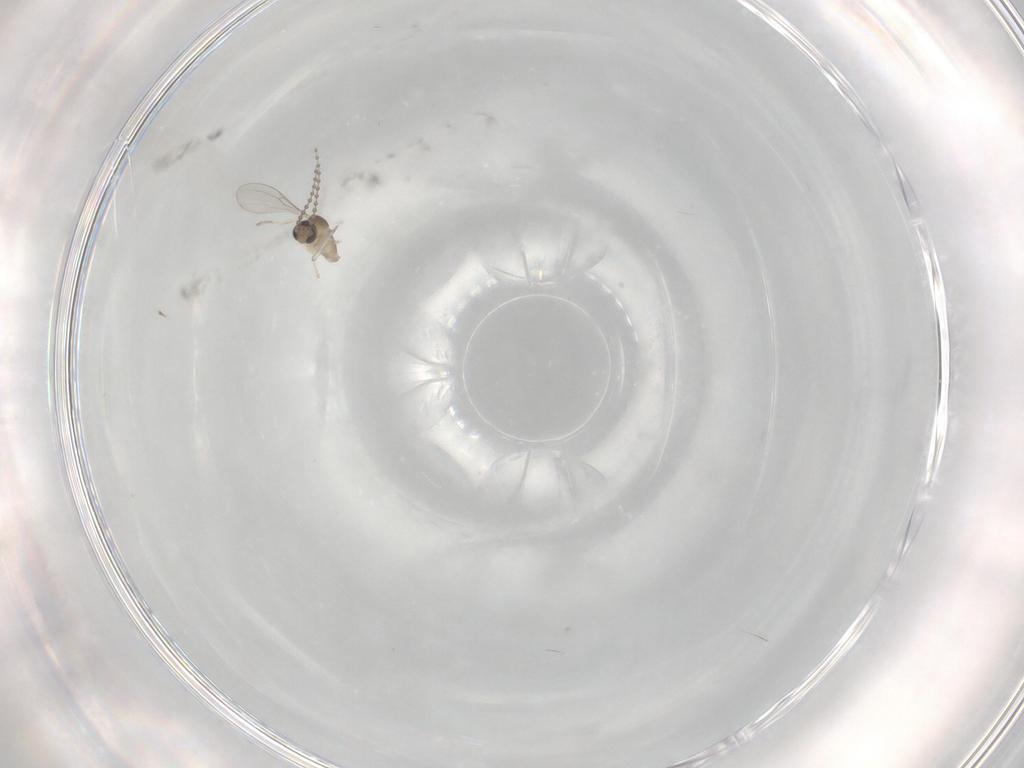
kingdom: Animalia
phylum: Arthropoda
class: Insecta
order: Diptera
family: Cecidomyiidae
